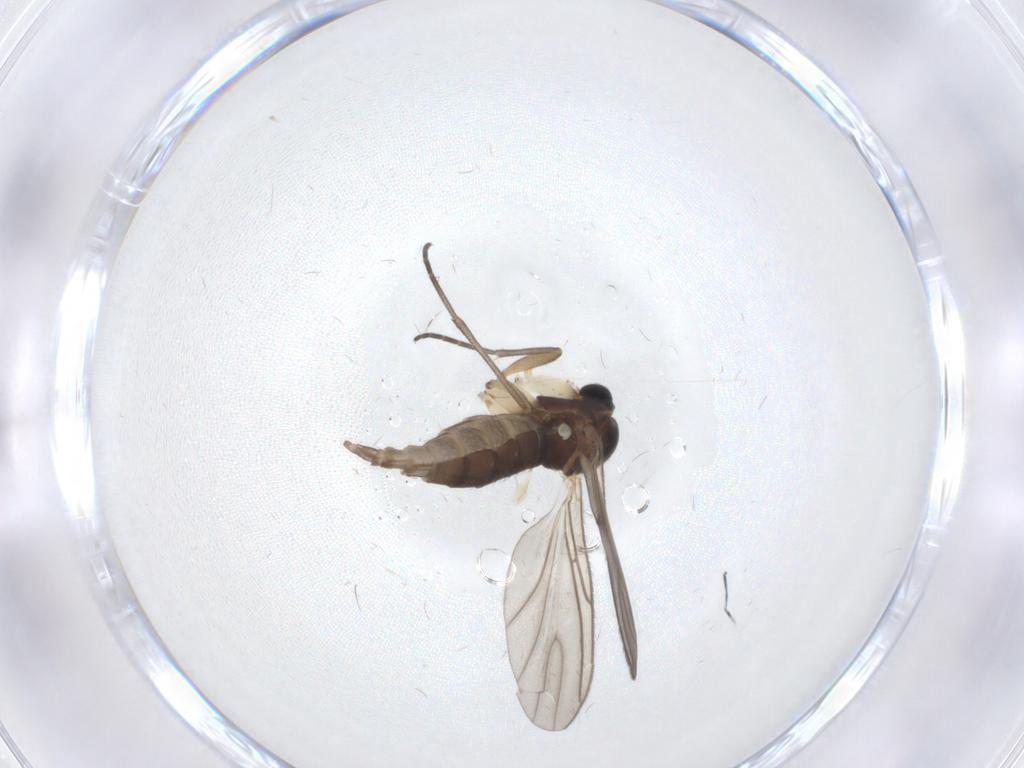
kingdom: Animalia
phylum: Arthropoda
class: Insecta
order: Diptera
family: Sciaridae
